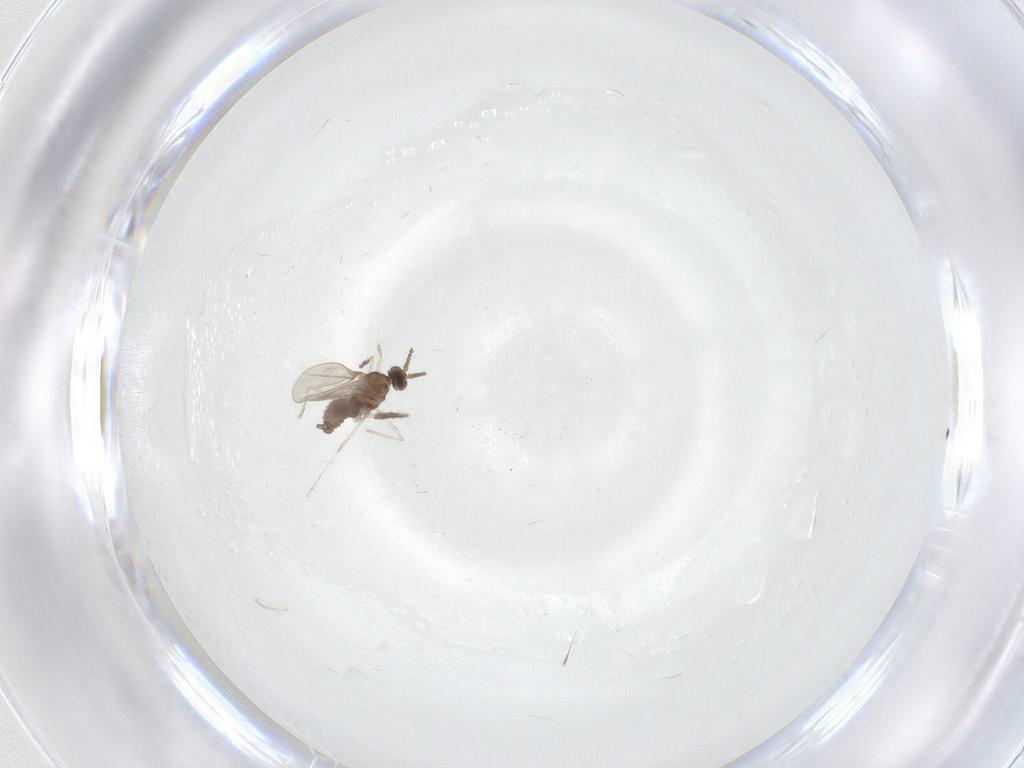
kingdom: Animalia
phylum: Arthropoda
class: Insecta
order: Diptera
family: Cecidomyiidae
